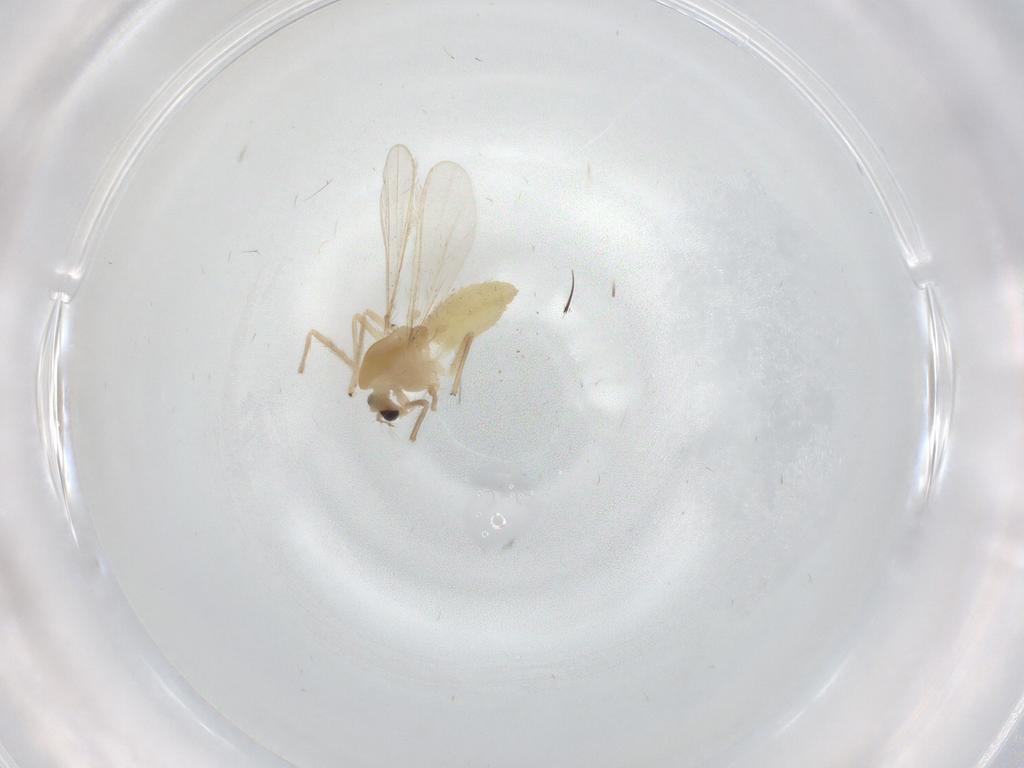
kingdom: Animalia
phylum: Arthropoda
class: Insecta
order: Diptera
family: Chironomidae
